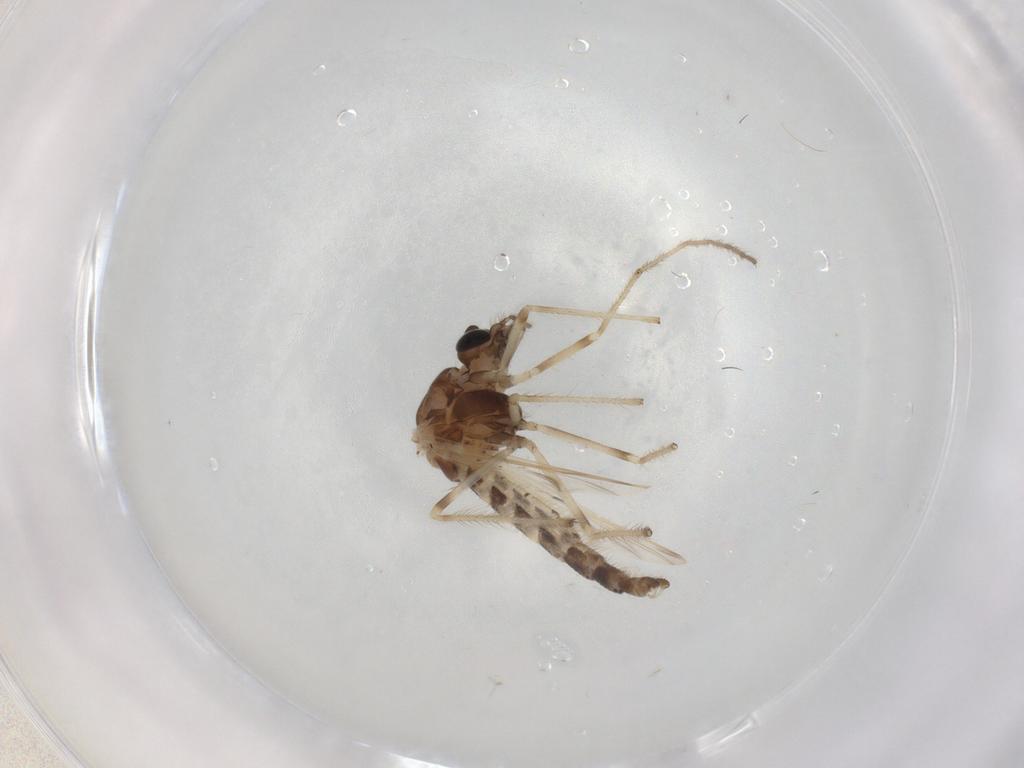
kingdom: Animalia
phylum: Arthropoda
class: Insecta
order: Diptera
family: Chironomidae
